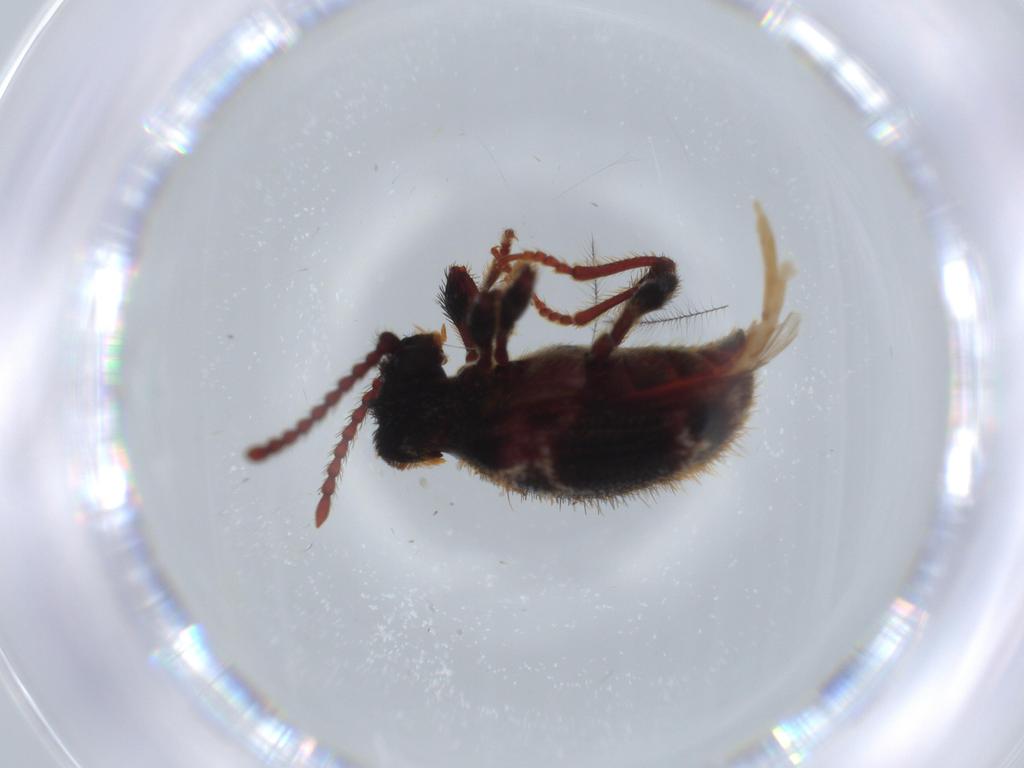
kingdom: Animalia
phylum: Arthropoda
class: Insecta
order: Coleoptera
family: Ptinidae
